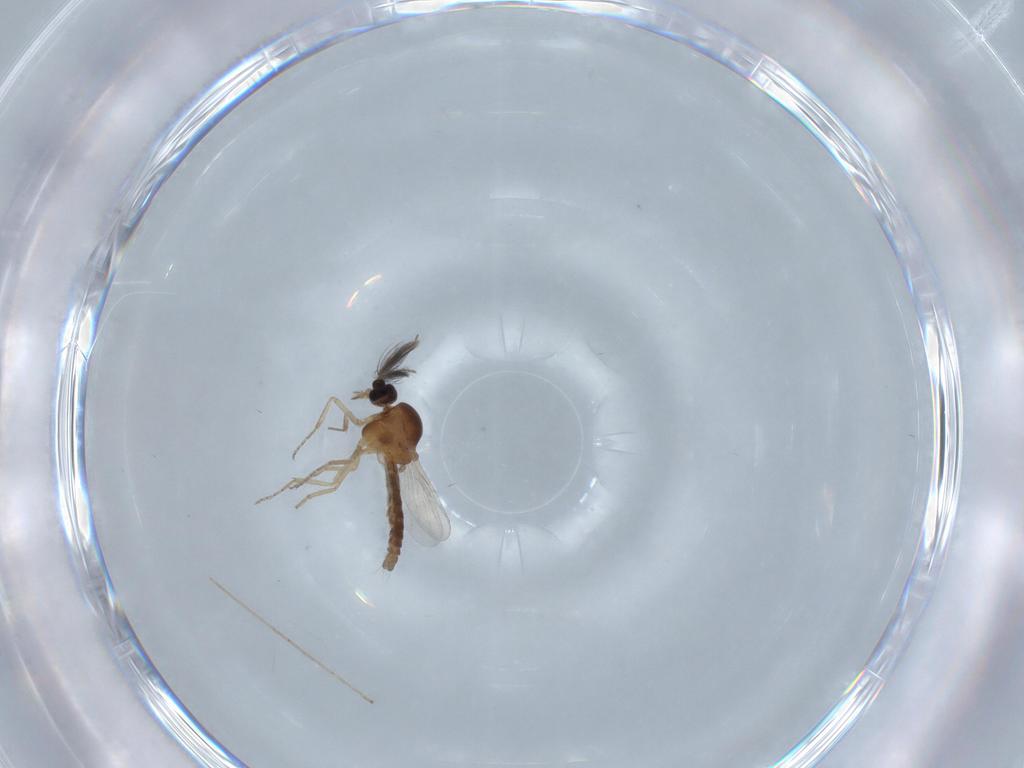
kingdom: Animalia
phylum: Arthropoda
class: Insecta
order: Diptera
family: Ceratopogonidae
